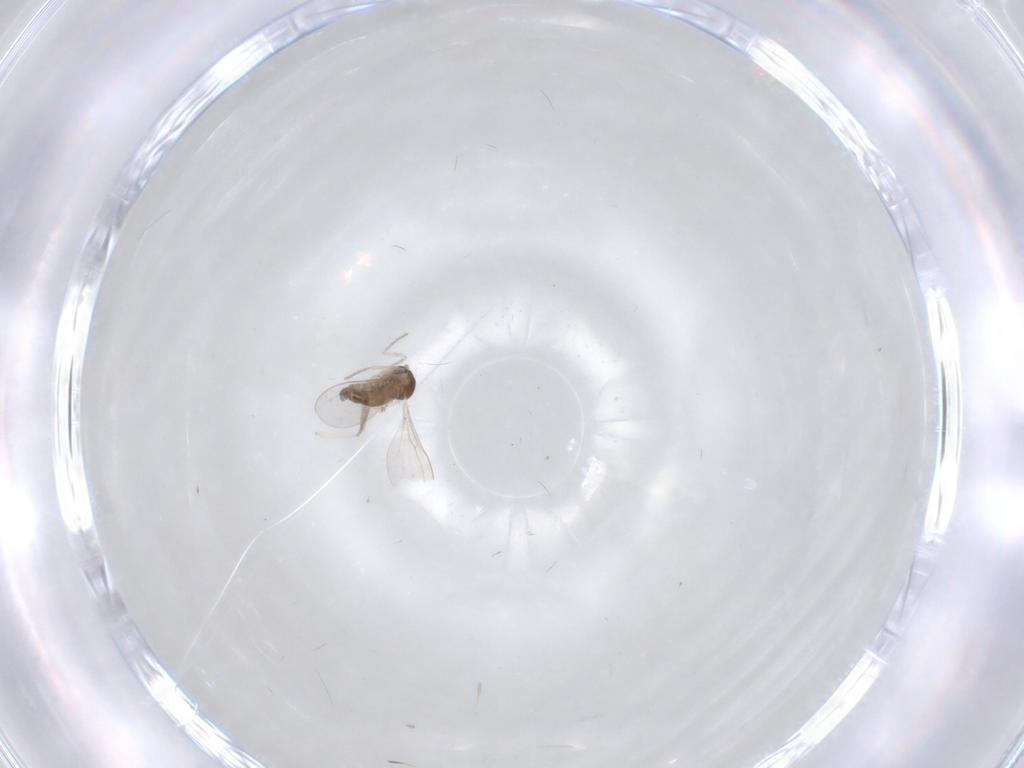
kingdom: Animalia
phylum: Arthropoda
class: Insecta
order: Diptera
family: Cecidomyiidae
